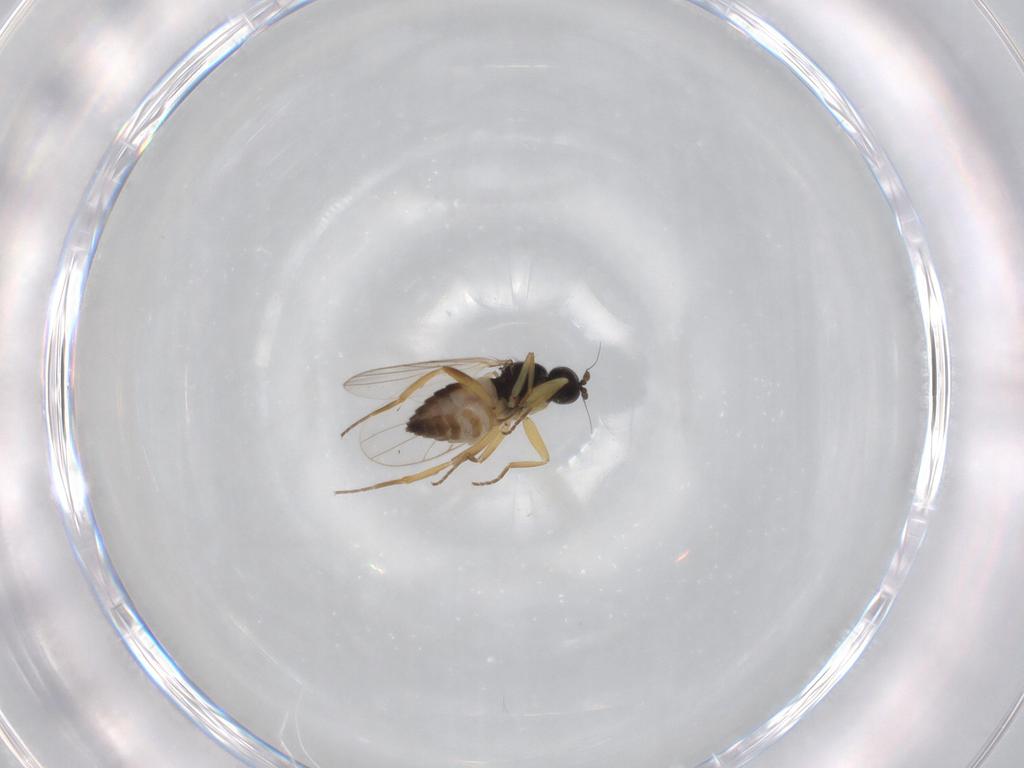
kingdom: Animalia
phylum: Arthropoda
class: Insecta
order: Diptera
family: Hybotidae
